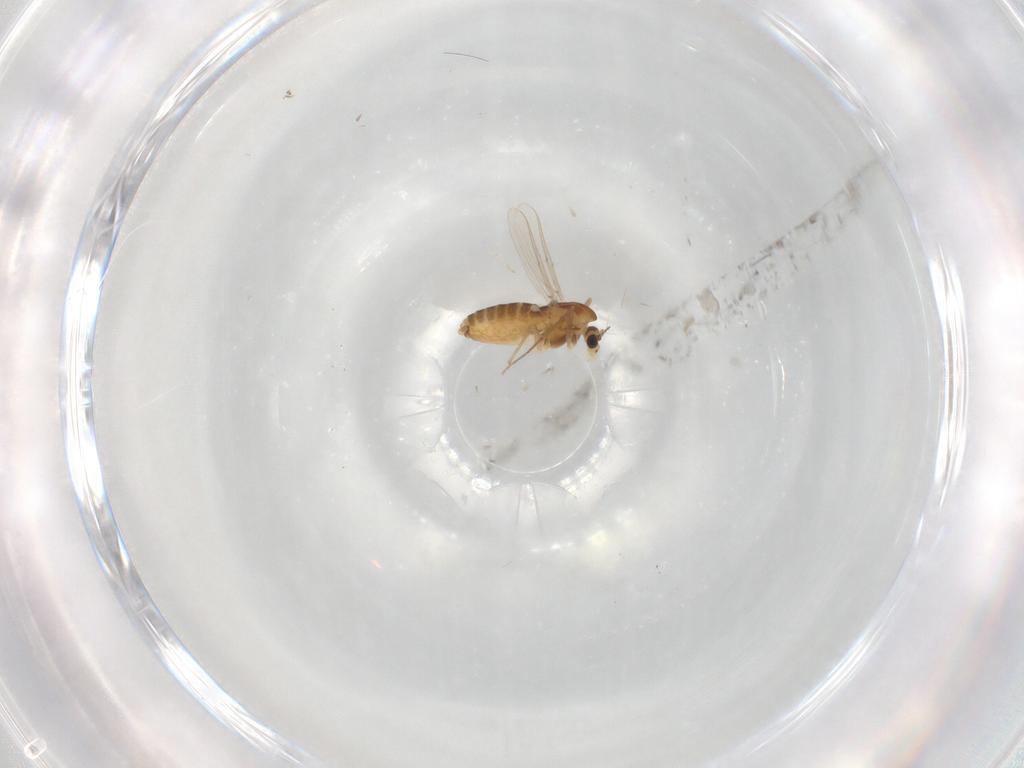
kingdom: Animalia
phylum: Arthropoda
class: Insecta
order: Diptera
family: Chironomidae
